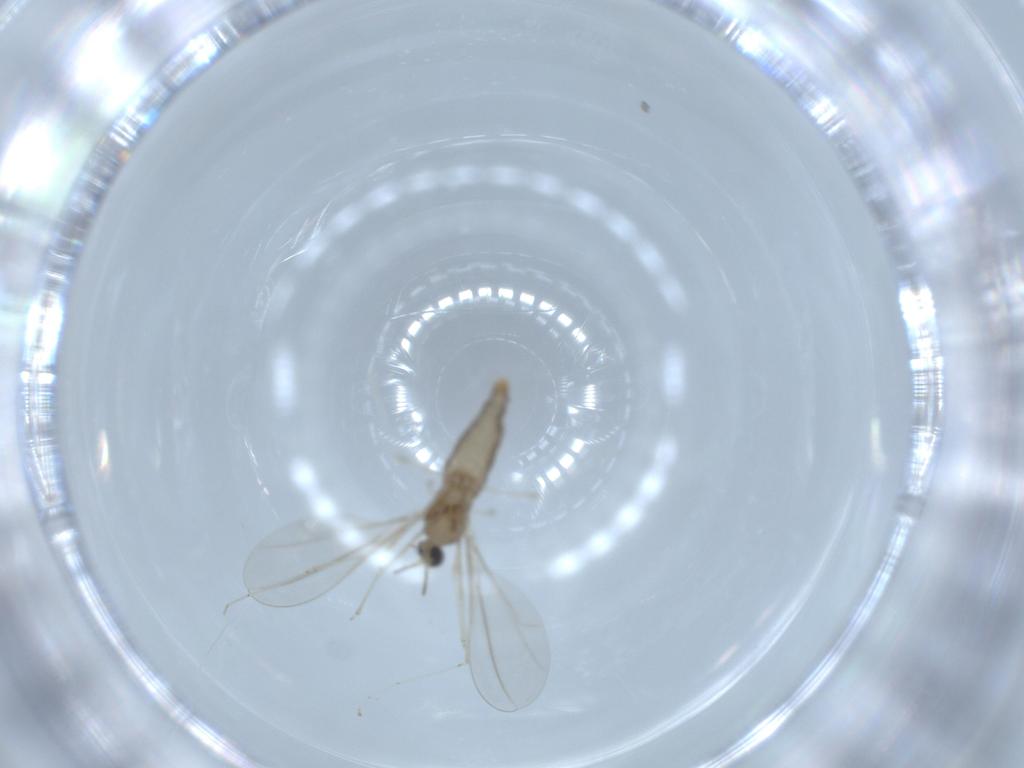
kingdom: Animalia
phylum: Arthropoda
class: Insecta
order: Diptera
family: Cecidomyiidae
